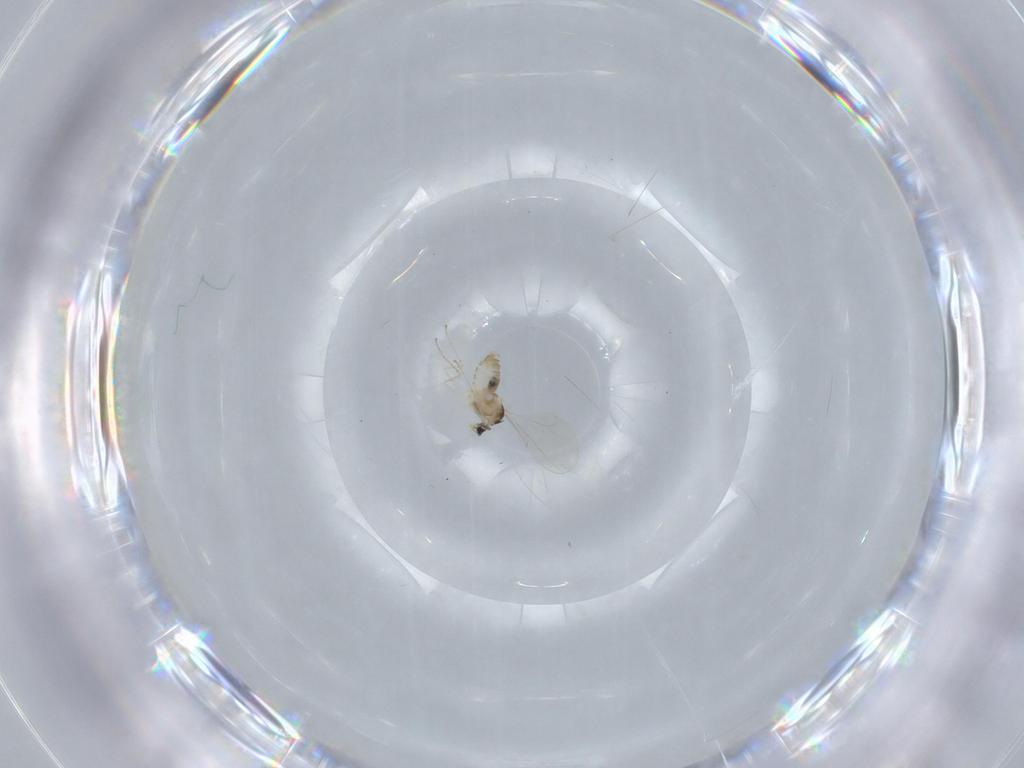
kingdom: Animalia
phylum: Arthropoda
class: Insecta
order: Diptera
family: Cecidomyiidae
